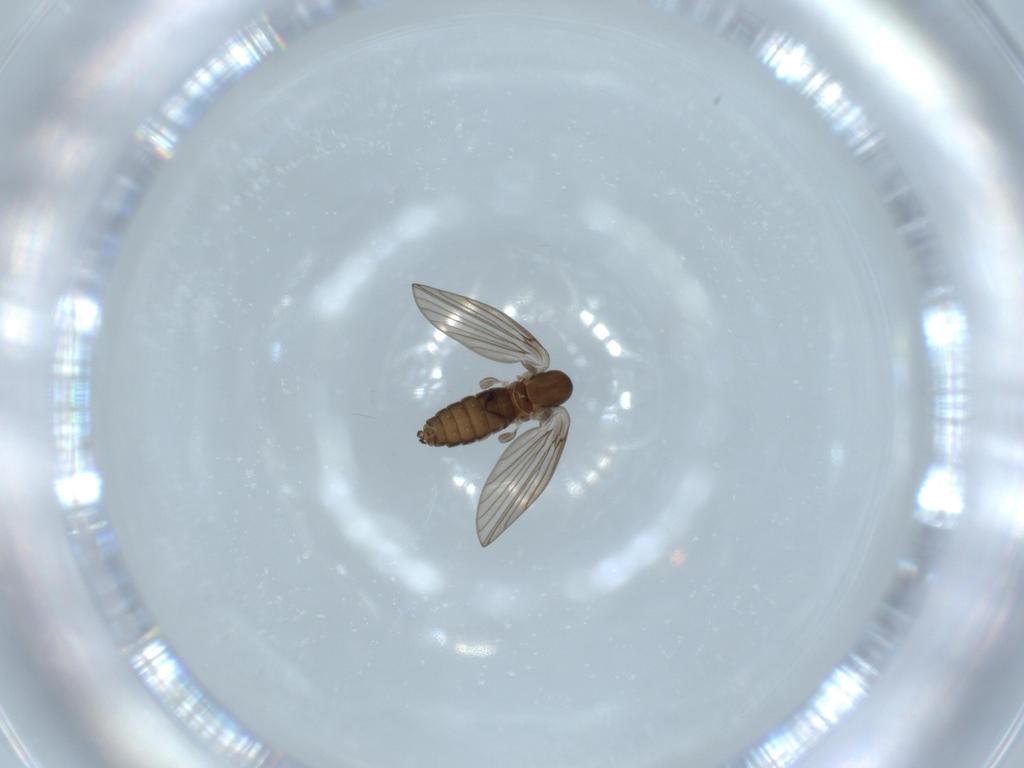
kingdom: Animalia
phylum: Arthropoda
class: Insecta
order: Diptera
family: Psychodidae
